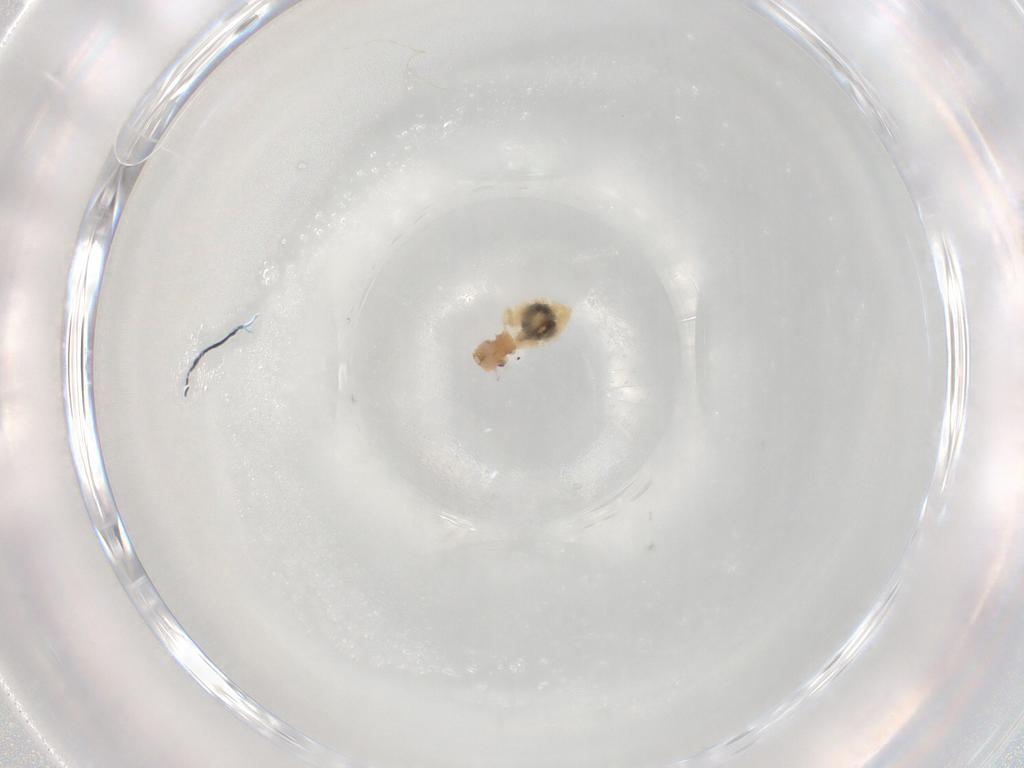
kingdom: Animalia
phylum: Arthropoda
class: Insecta
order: Psocodea
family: Caeciliusidae
